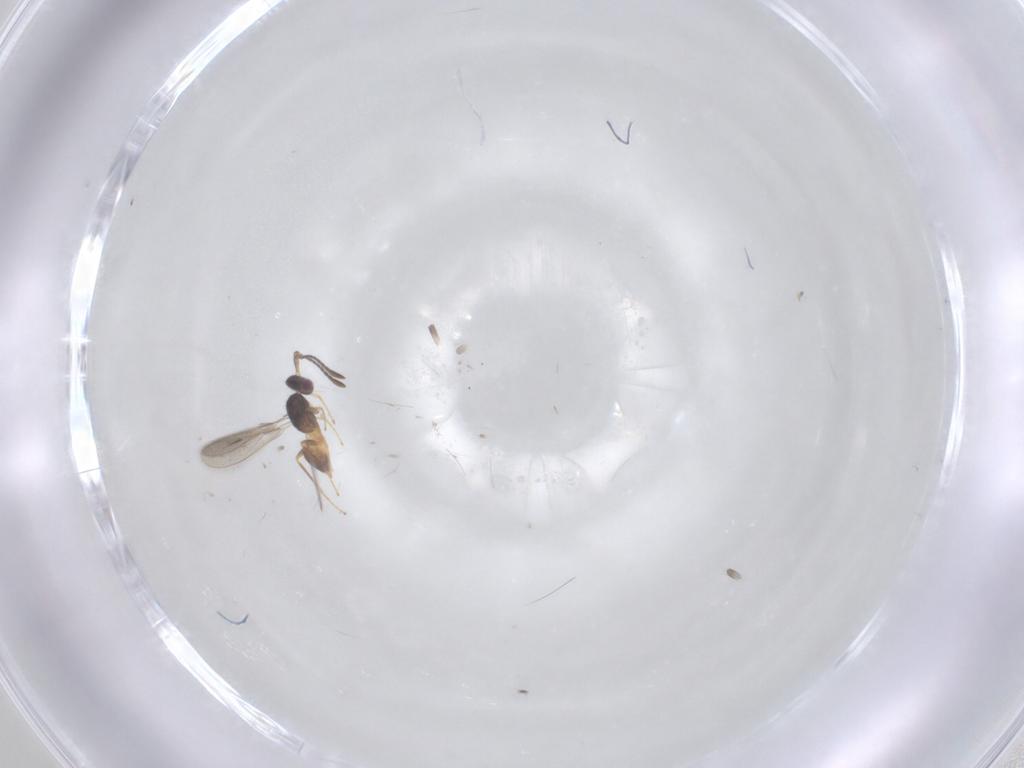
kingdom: Animalia
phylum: Arthropoda
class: Insecta
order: Hymenoptera
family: Mymaridae
